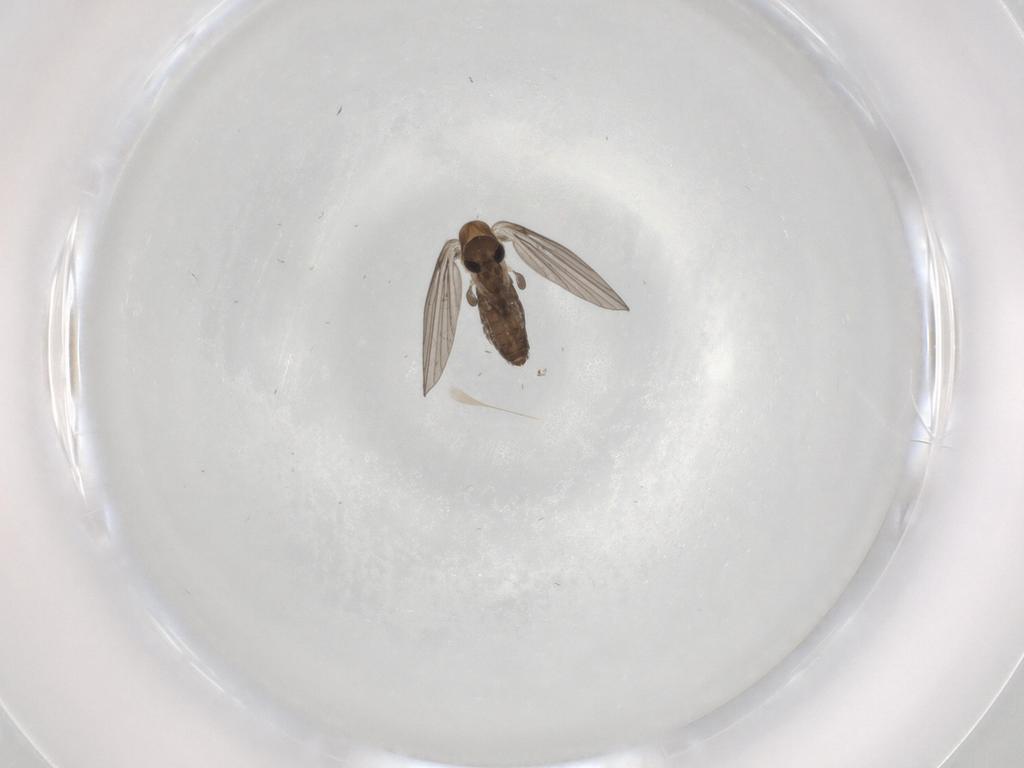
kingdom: Animalia
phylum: Arthropoda
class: Insecta
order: Diptera
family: Psychodidae
